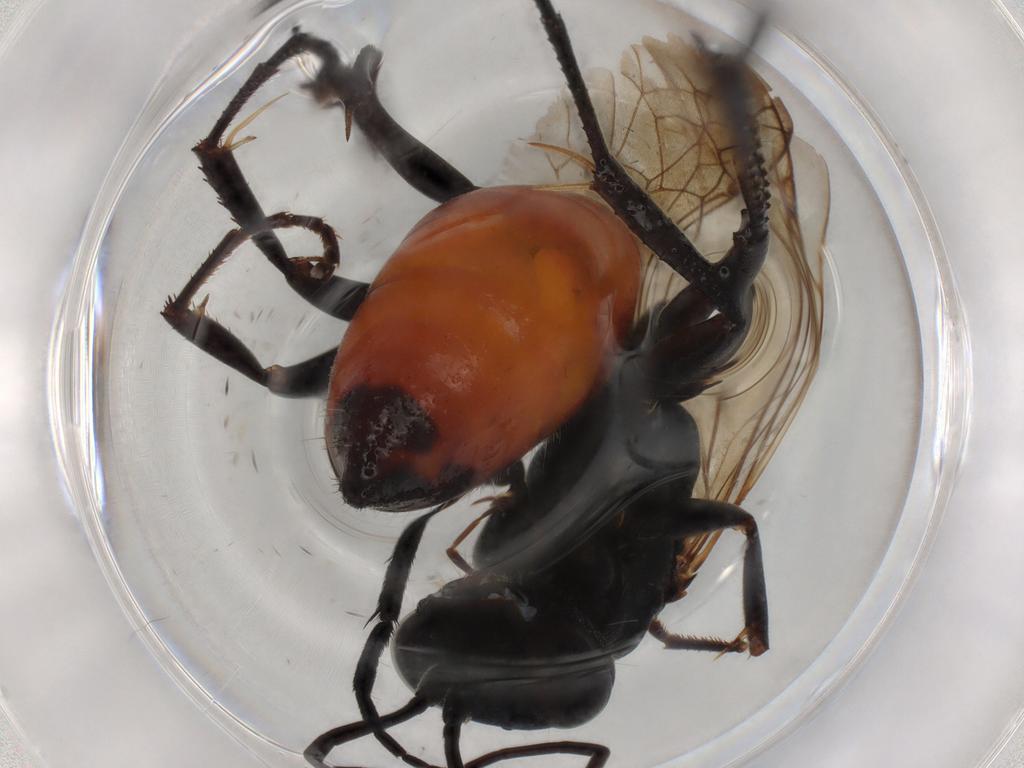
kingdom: Animalia
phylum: Arthropoda
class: Insecta
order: Hymenoptera
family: Pompilidae
